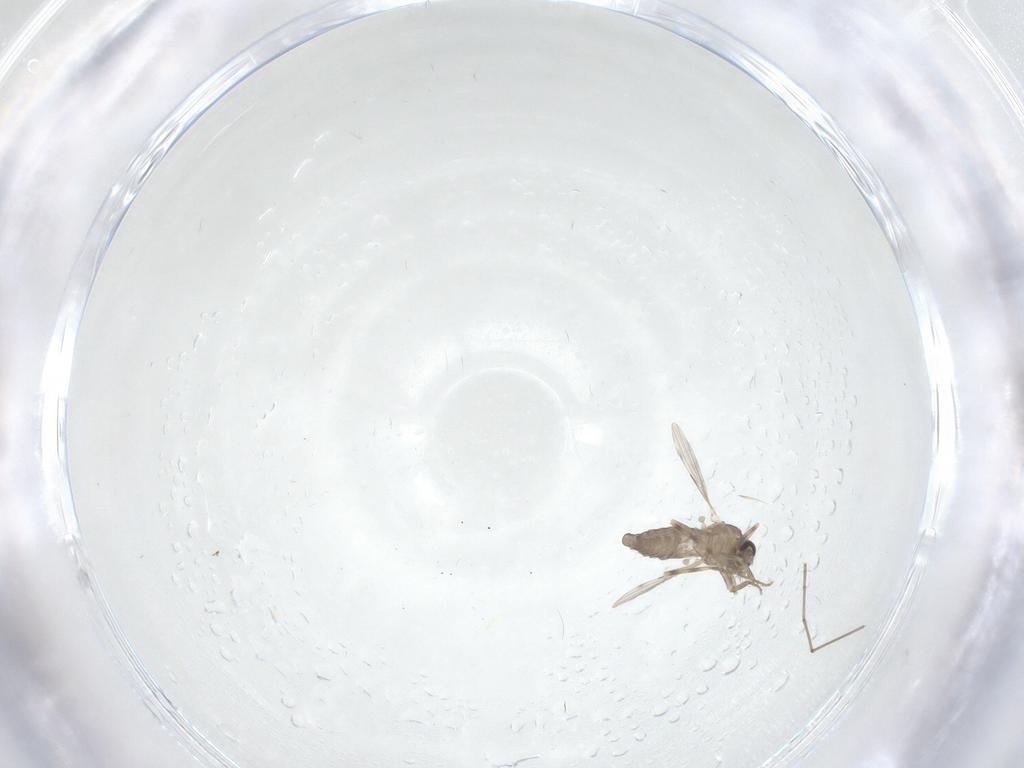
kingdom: Animalia
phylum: Arthropoda
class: Insecta
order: Diptera
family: Ceratopogonidae
